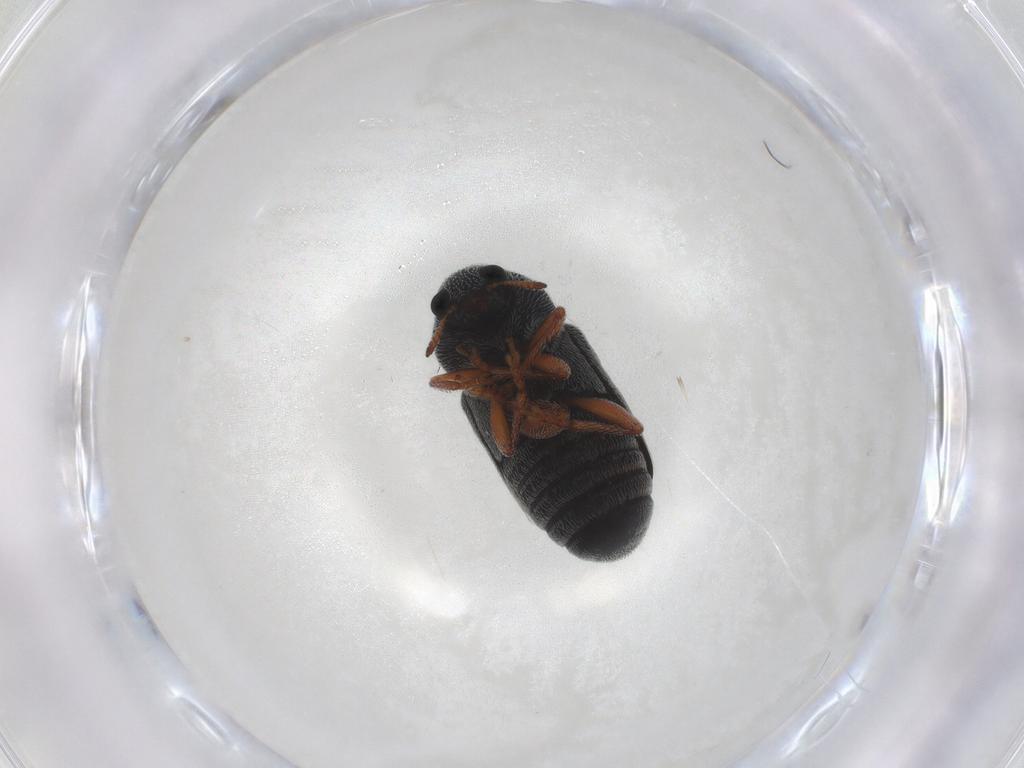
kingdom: Animalia
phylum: Arthropoda
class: Insecta
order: Coleoptera
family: Anthribidae
